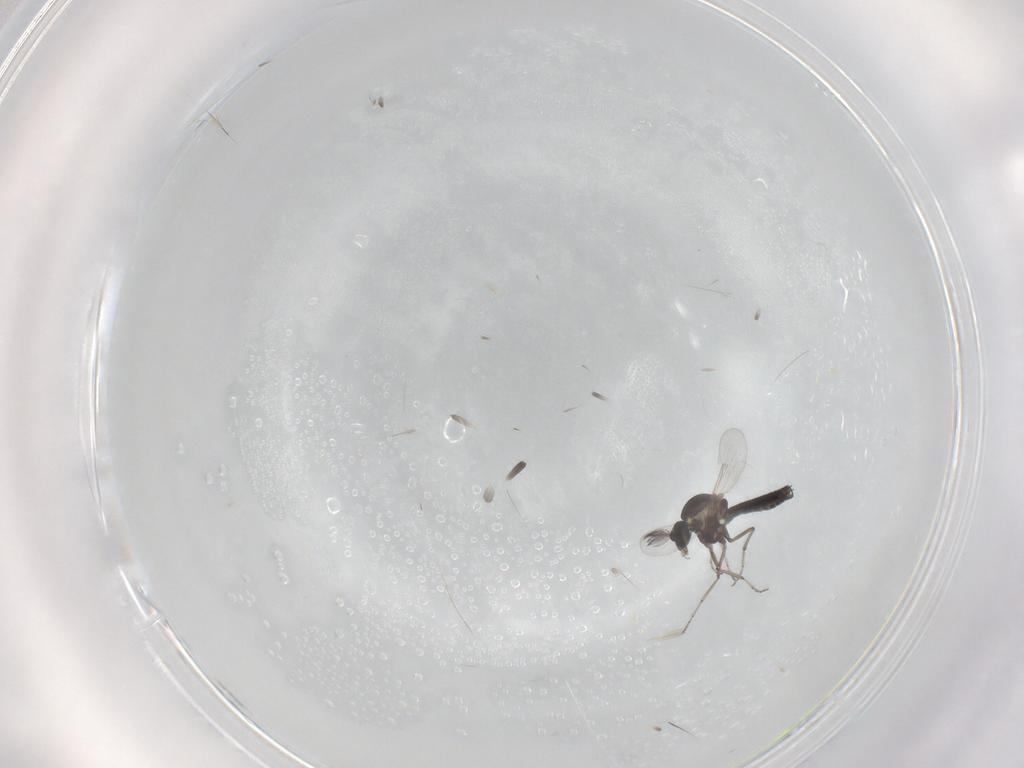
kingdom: Animalia
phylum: Arthropoda
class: Insecta
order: Diptera
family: Ceratopogonidae
